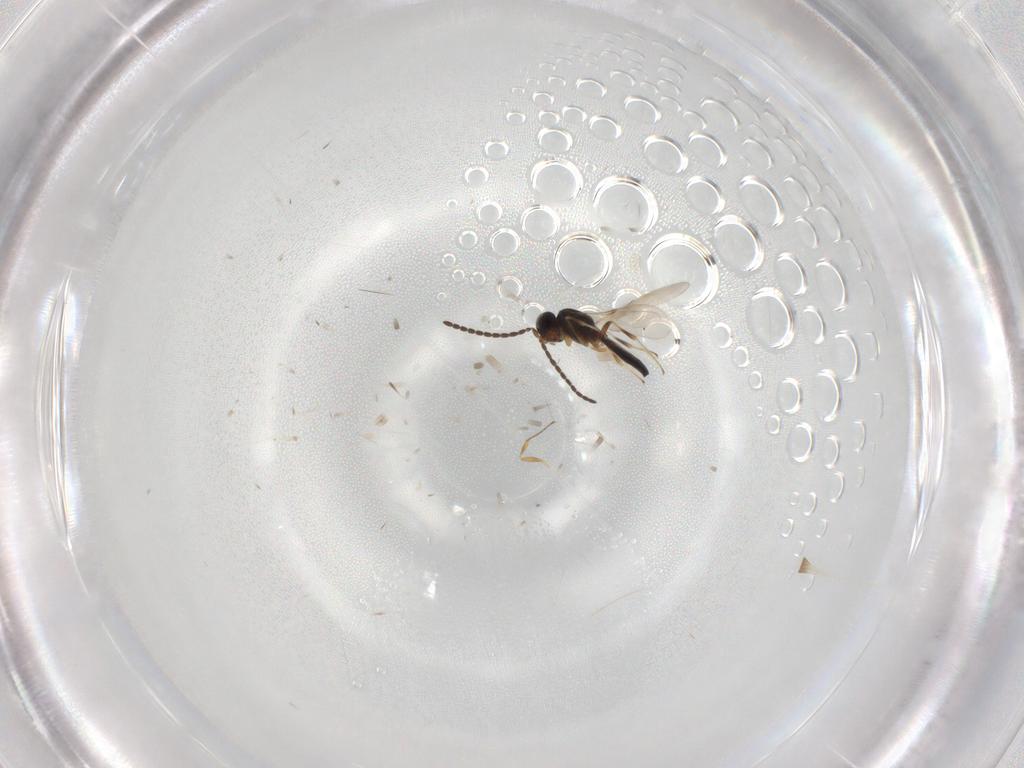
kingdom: Animalia
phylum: Arthropoda
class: Insecta
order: Hymenoptera
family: Scelionidae
